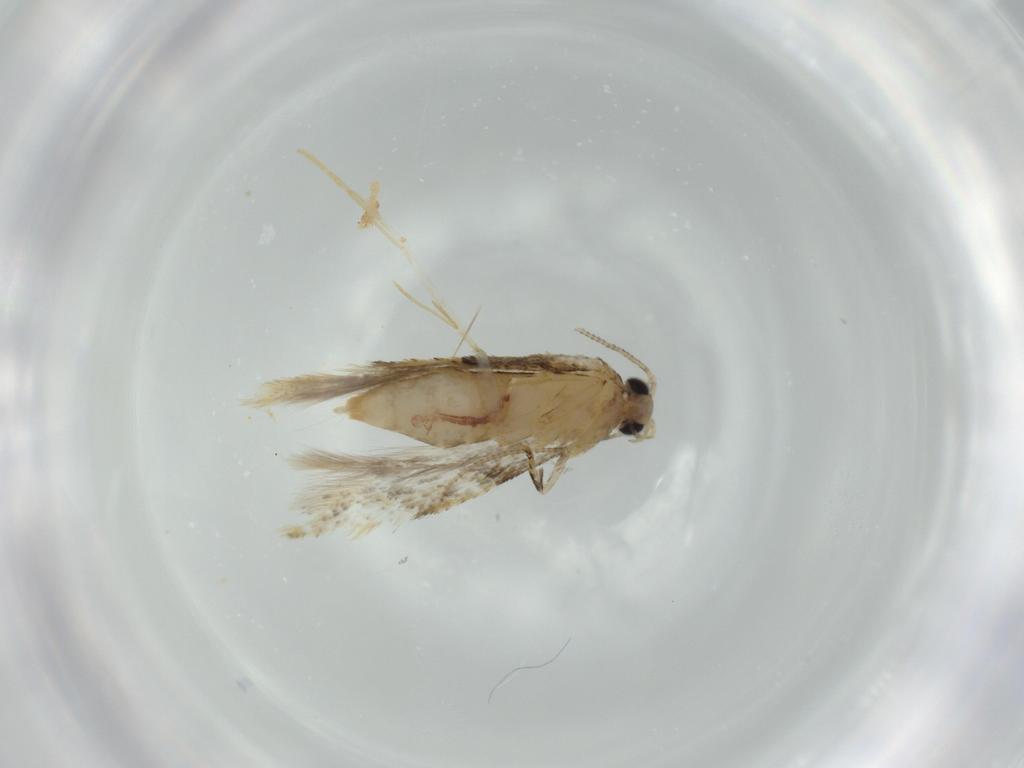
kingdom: Animalia
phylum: Arthropoda
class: Insecta
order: Lepidoptera
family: Tineidae
